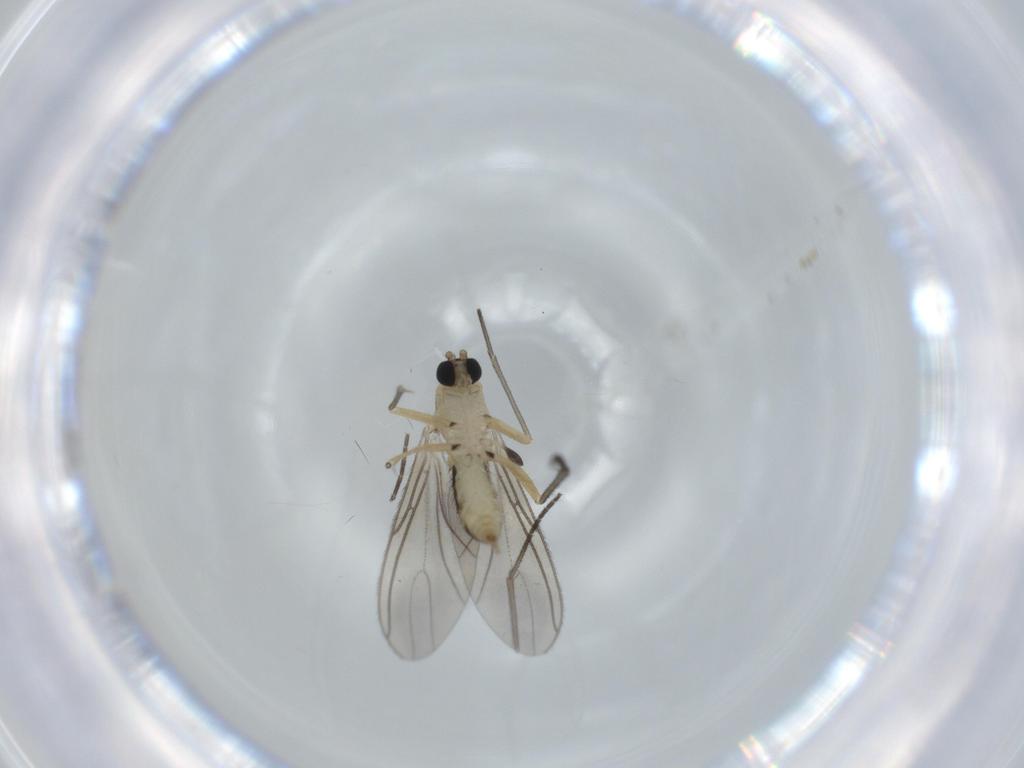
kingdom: Animalia
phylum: Arthropoda
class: Insecta
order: Diptera
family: Sciaridae
